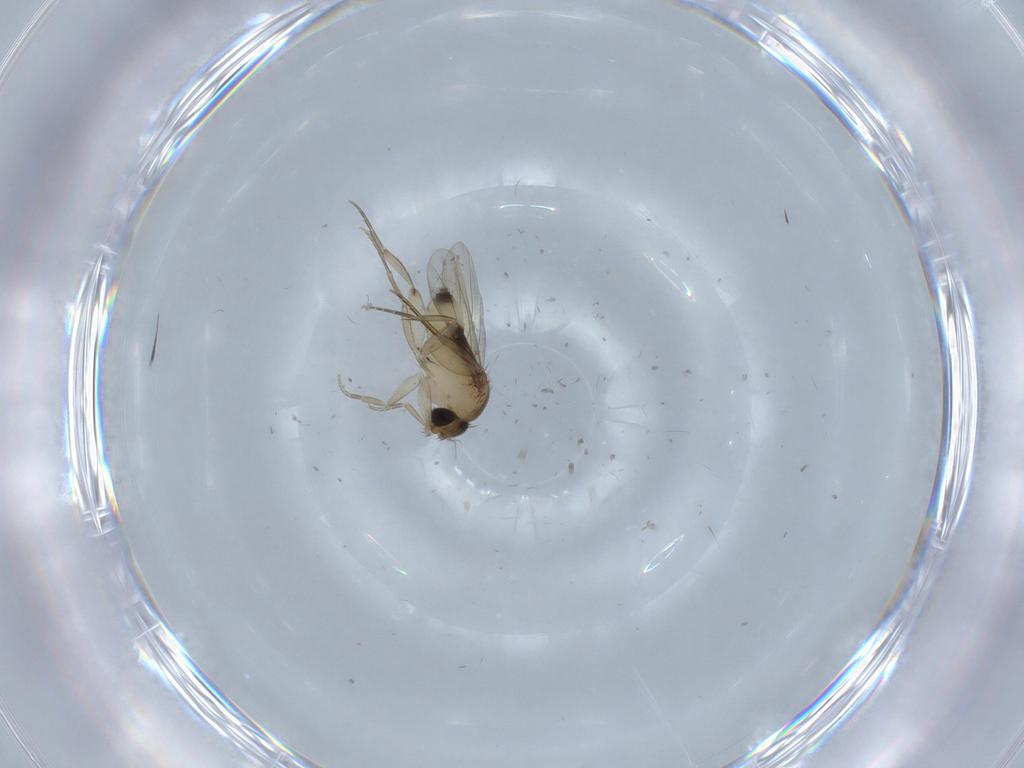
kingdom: Animalia
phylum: Arthropoda
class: Insecta
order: Diptera
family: Phoridae
